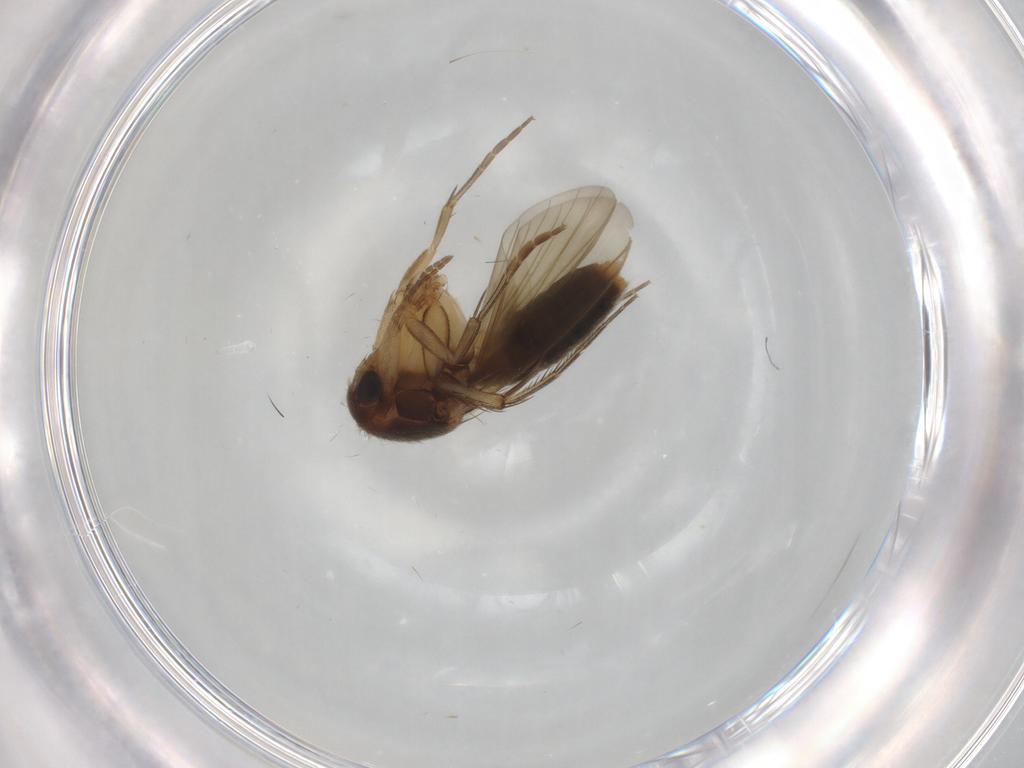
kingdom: Animalia
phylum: Arthropoda
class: Insecta
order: Diptera
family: Mycetophilidae
